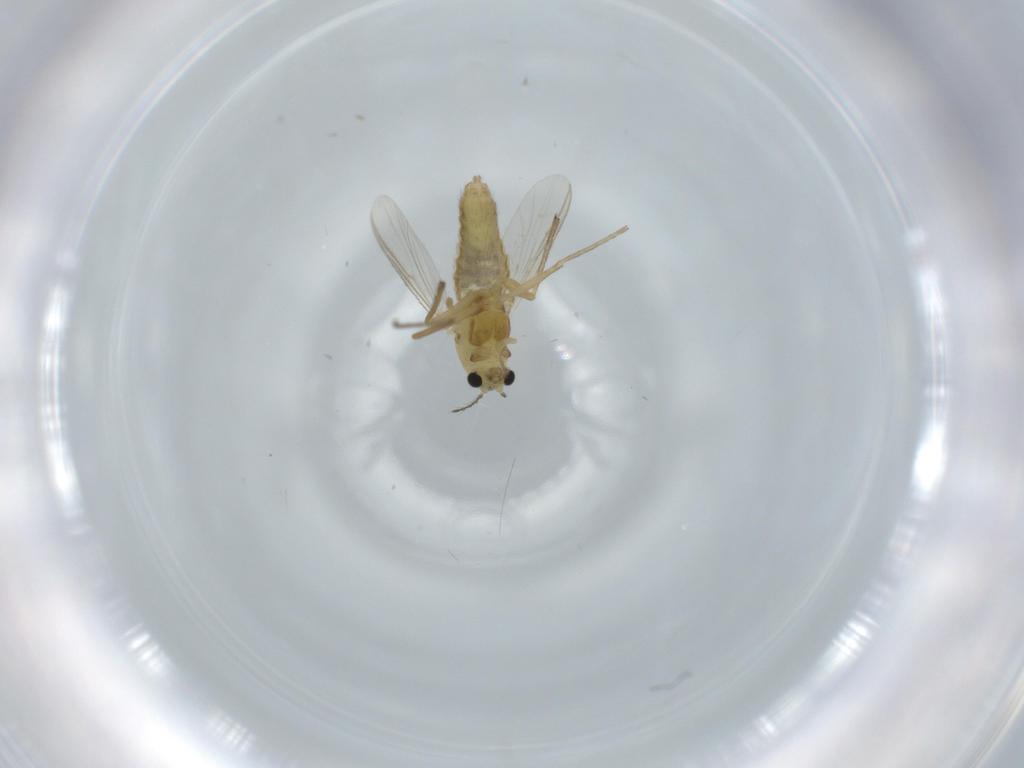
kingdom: Animalia
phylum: Arthropoda
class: Insecta
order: Diptera
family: Chironomidae
